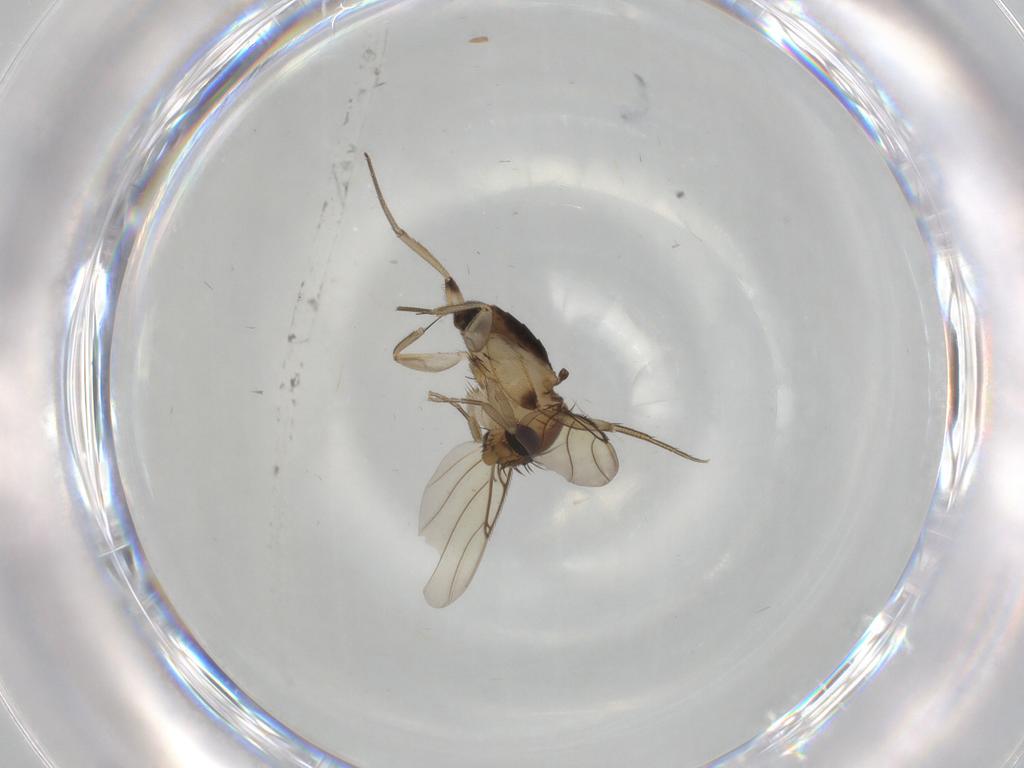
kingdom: Animalia
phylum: Arthropoda
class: Insecta
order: Diptera
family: Phoridae
